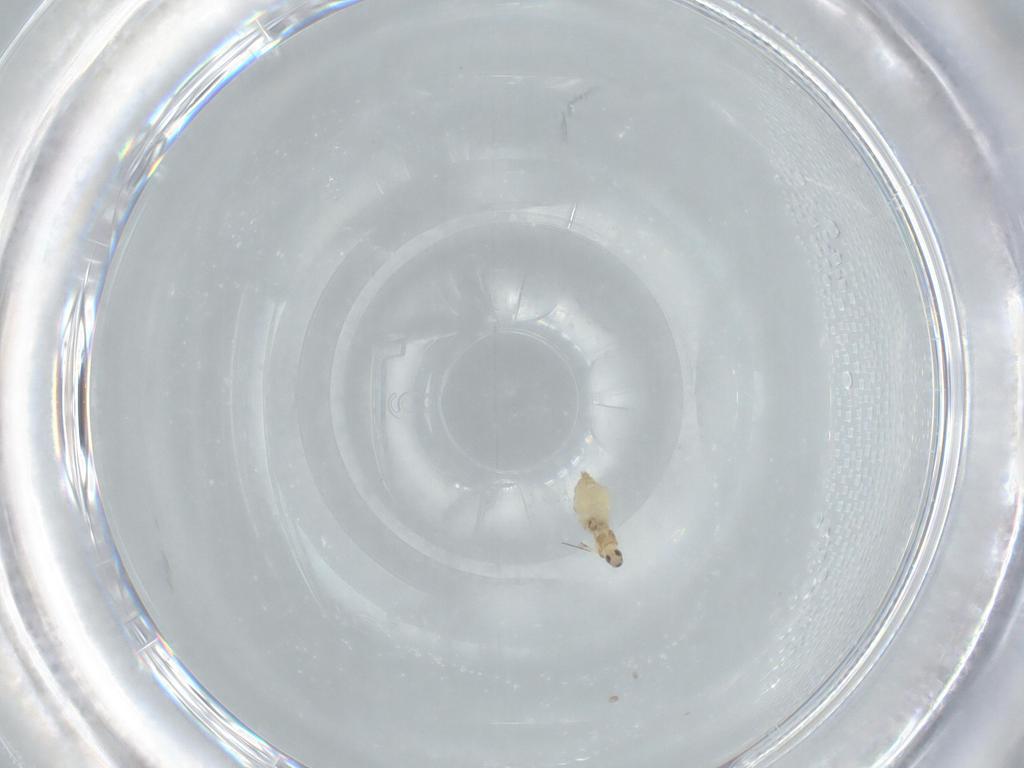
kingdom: Animalia
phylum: Arthropoda
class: Insecta
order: Diptera
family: Cecidomyiidae
